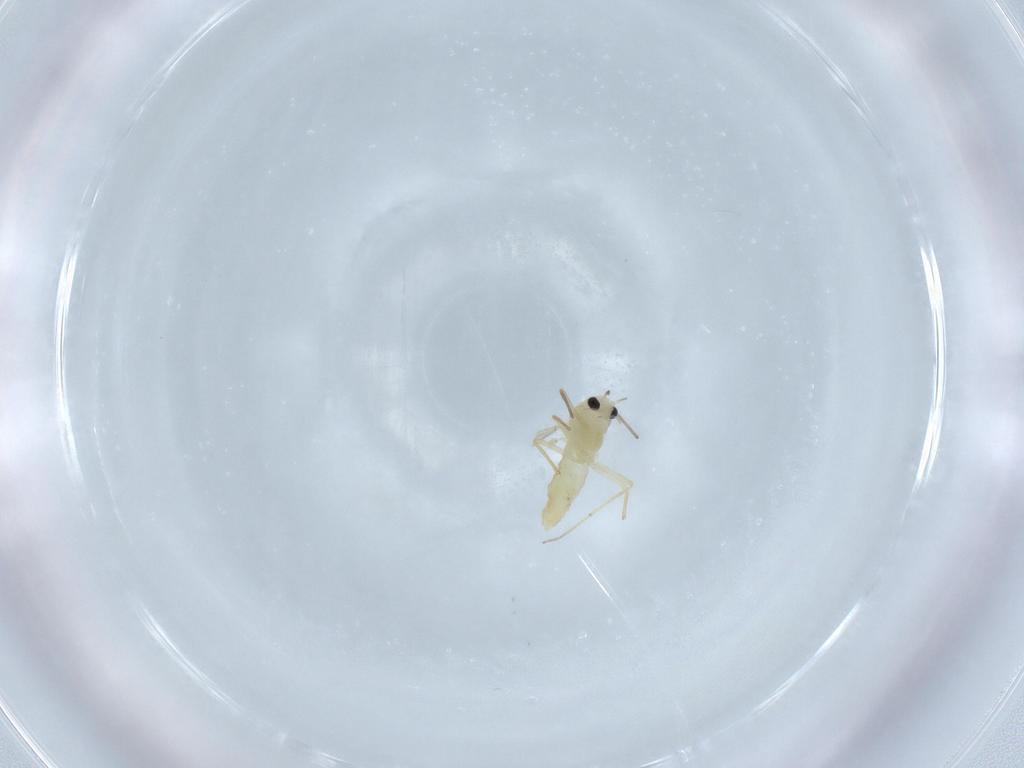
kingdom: Animalia
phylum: Arthropoda
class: Insecta
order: Diptera
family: Chironomidae
